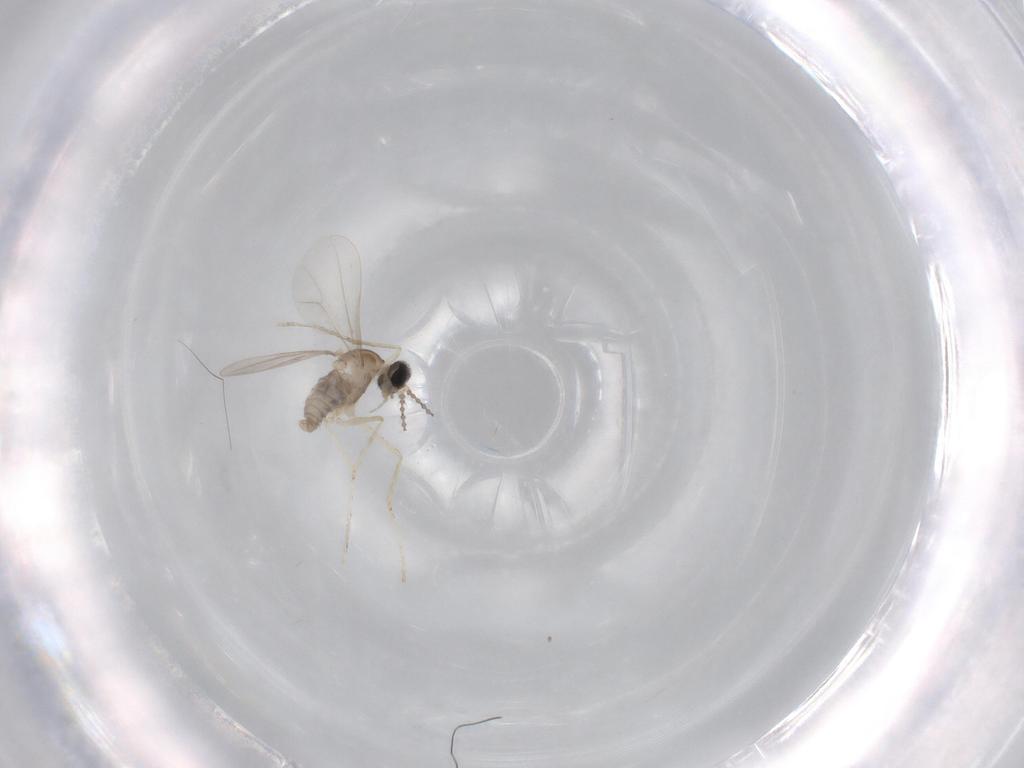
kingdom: Animalia
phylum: Arthropoda
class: Insecta
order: Diptera
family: Cecidomyiidae
